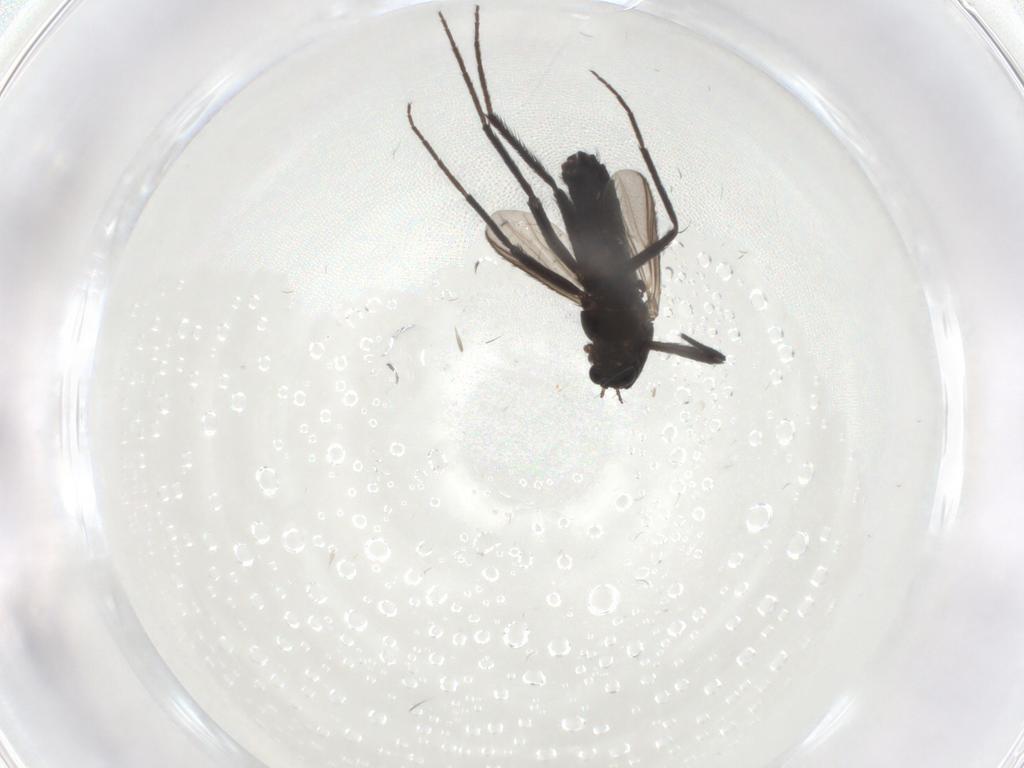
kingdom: Animalia
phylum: Arthropoda
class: Insecta
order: Diptera
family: Chironomidae
